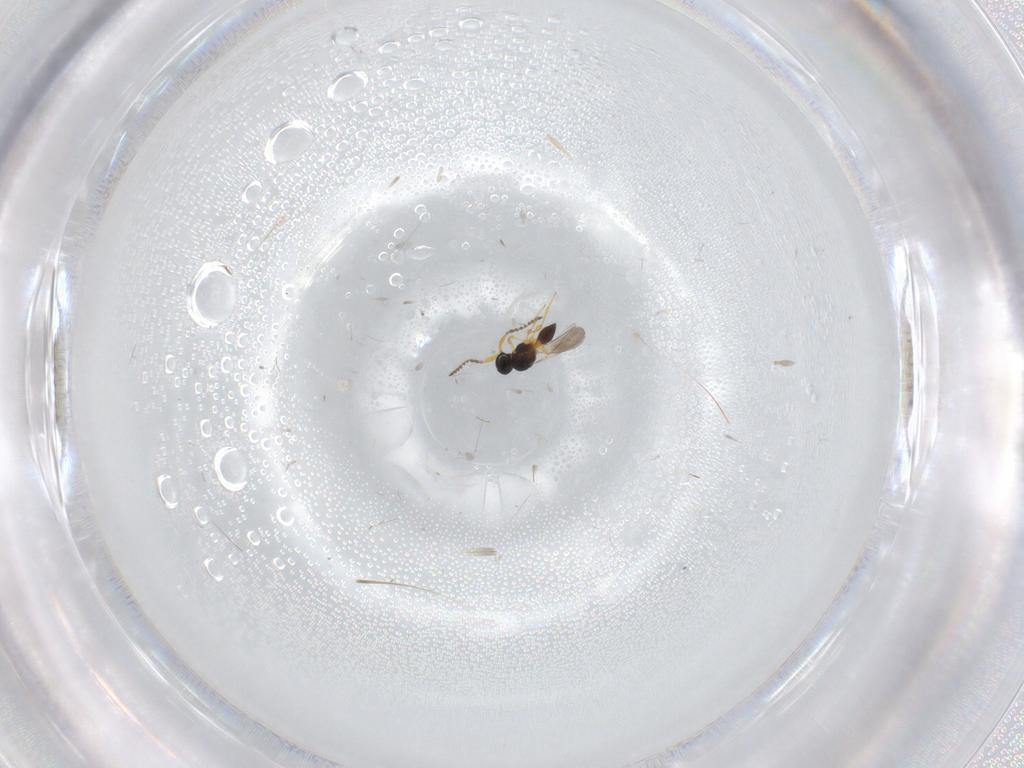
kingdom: Animalia
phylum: Arthropoda
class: Insecta
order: Hymenoptera
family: Platygastridae
